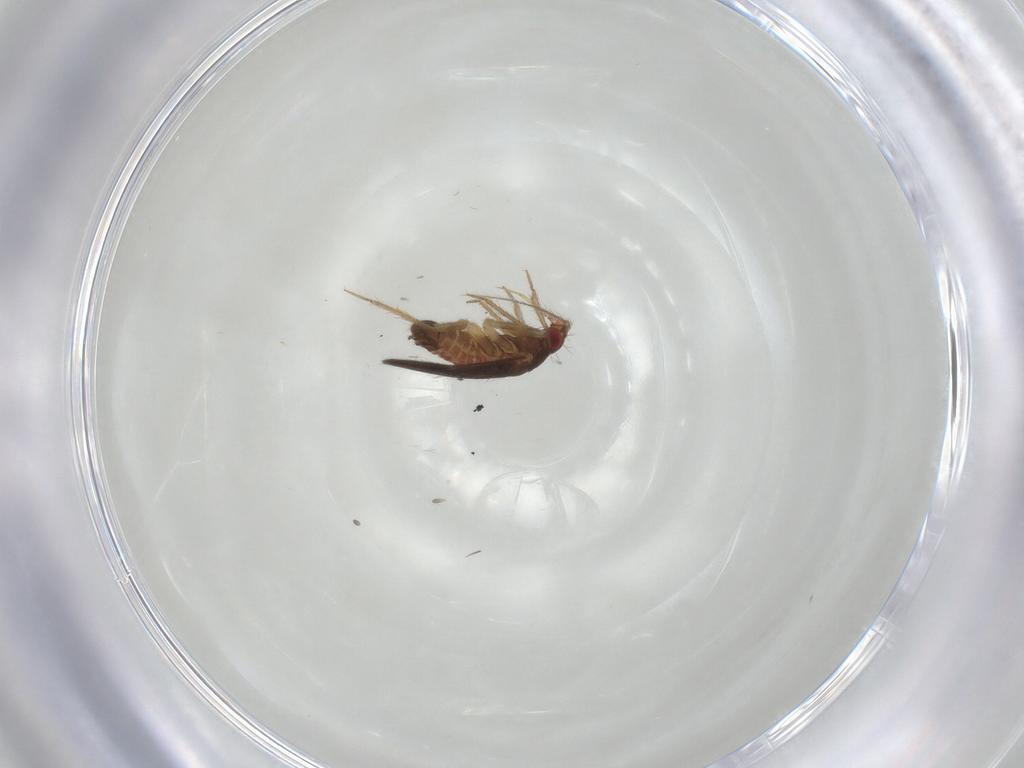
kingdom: Animalia
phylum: Arthropoda
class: Insecta
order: Hemiptera
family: Ceratocombidae
